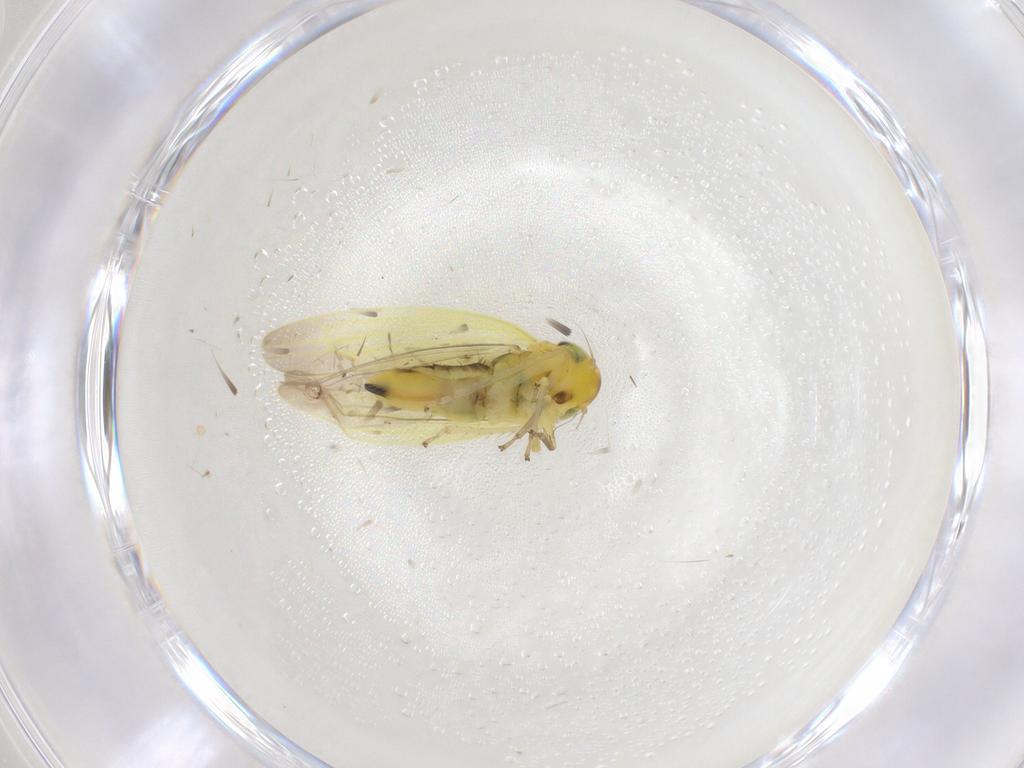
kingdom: Animalia
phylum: Arthropoda
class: Insecta
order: Hemiptera
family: Cicadellidae
